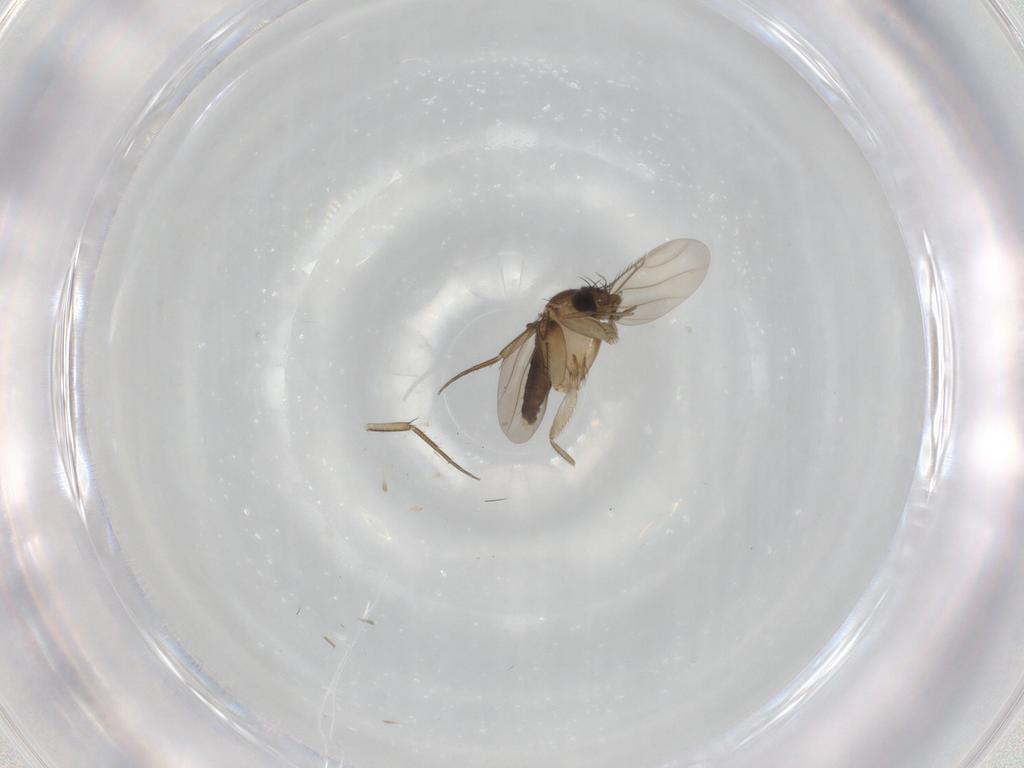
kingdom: Animalia
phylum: Arthropoda
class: Insecta
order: Diptera
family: Phoridae
